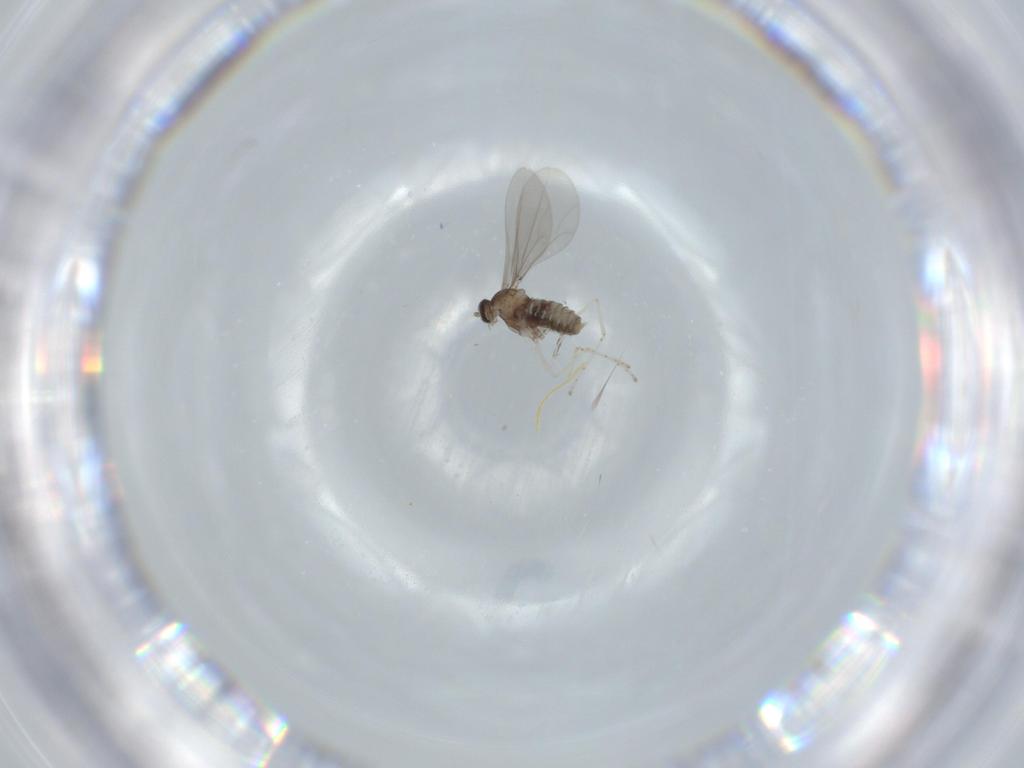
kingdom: Animalia
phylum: Arthropoda
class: Insecta
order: Diptera
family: Cecidomyiidae
